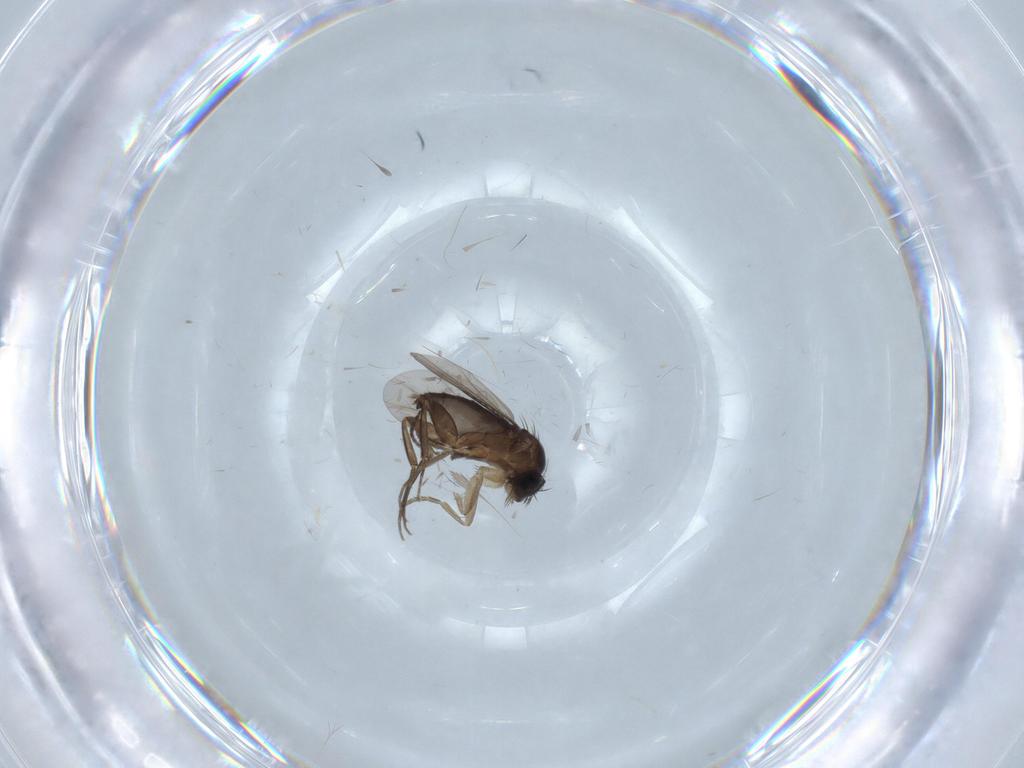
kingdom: Animalia
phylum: Arthropoda
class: Insecta
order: Diptera
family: Sciaridae
